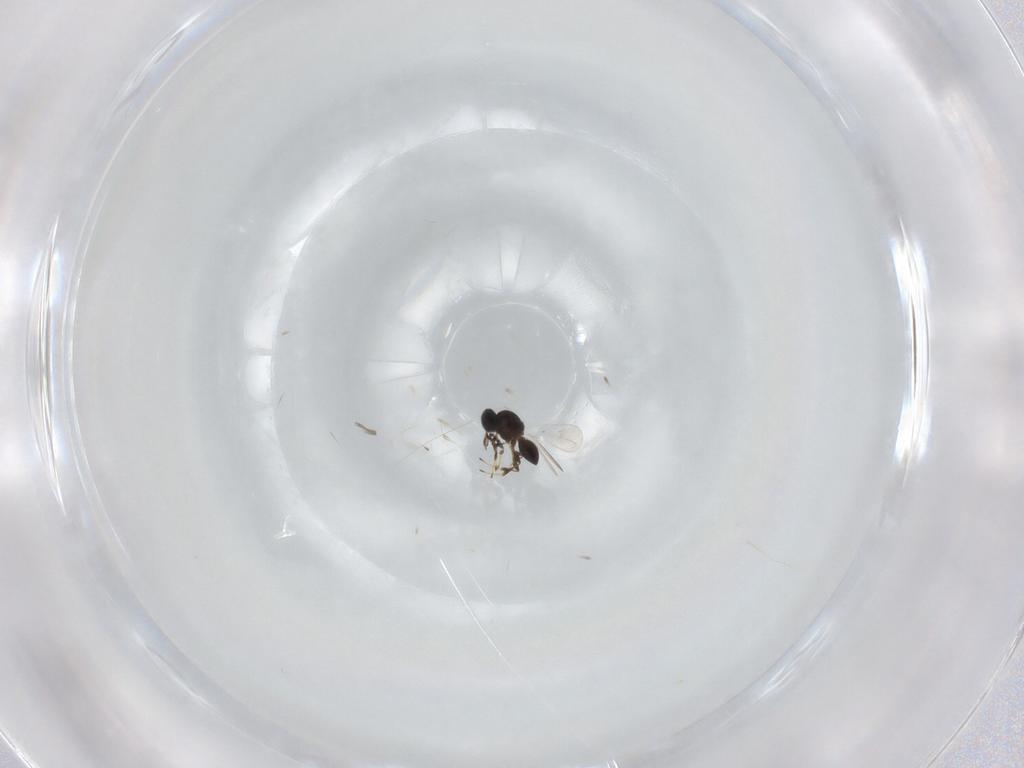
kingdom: Animalia
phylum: Arthropoda
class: Insecta
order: Hymenoptera
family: Platygastridae
